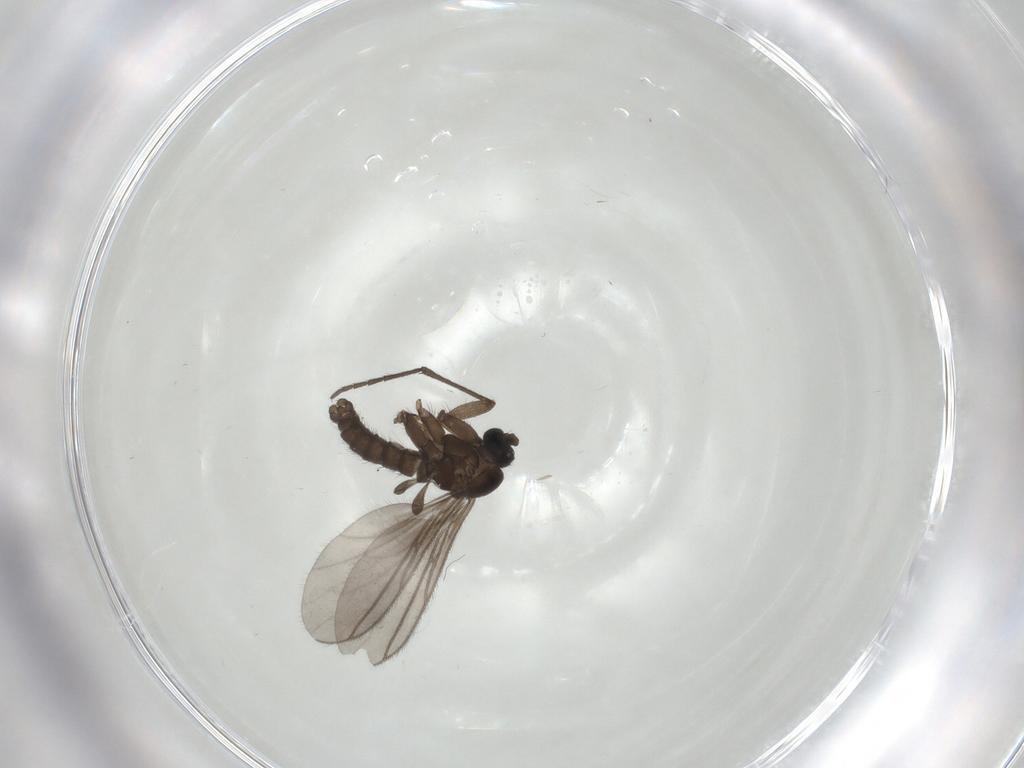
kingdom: Animalia
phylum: Arthropoda
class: Insecta
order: Diptera
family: Sciaridae
